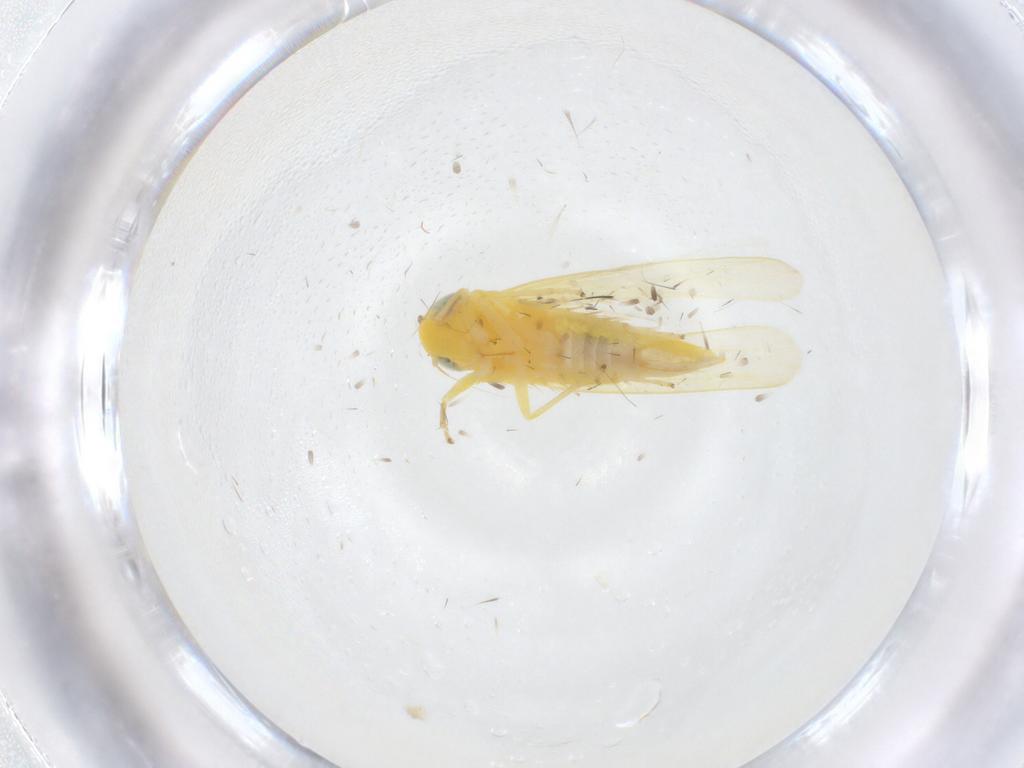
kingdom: Animalia
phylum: Arthropoda
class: Insecta
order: Hemiptera
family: Cicadellidae
